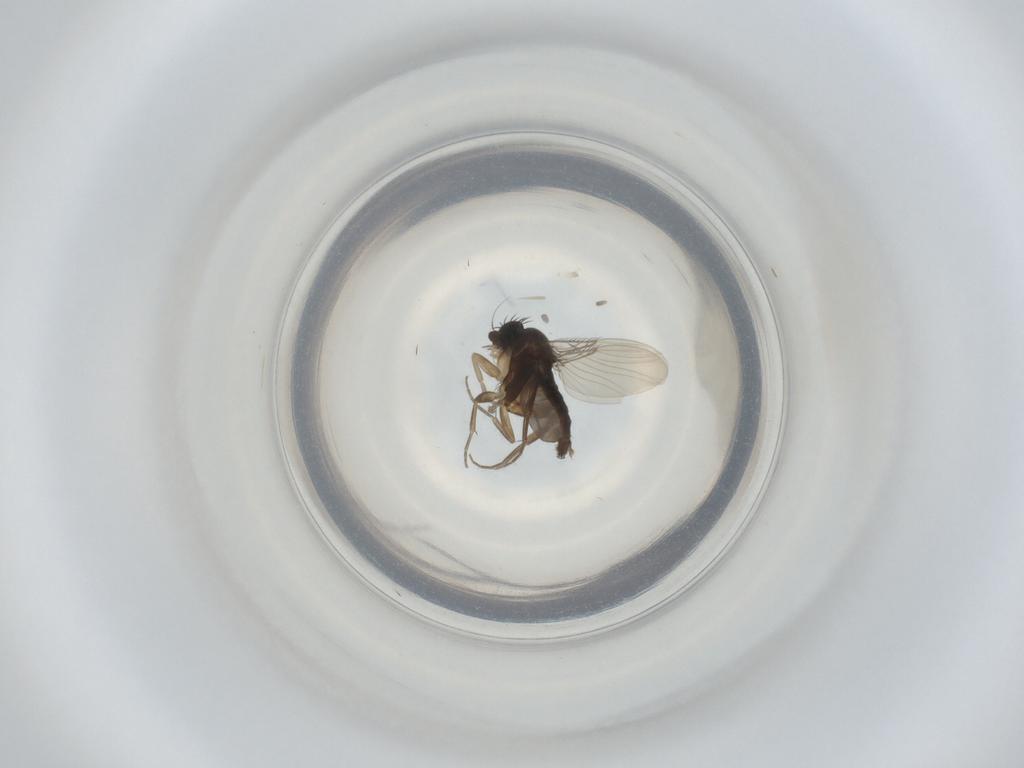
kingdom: Animalia
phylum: Arthropoda
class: Insecta
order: Diptera
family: Phoridae
